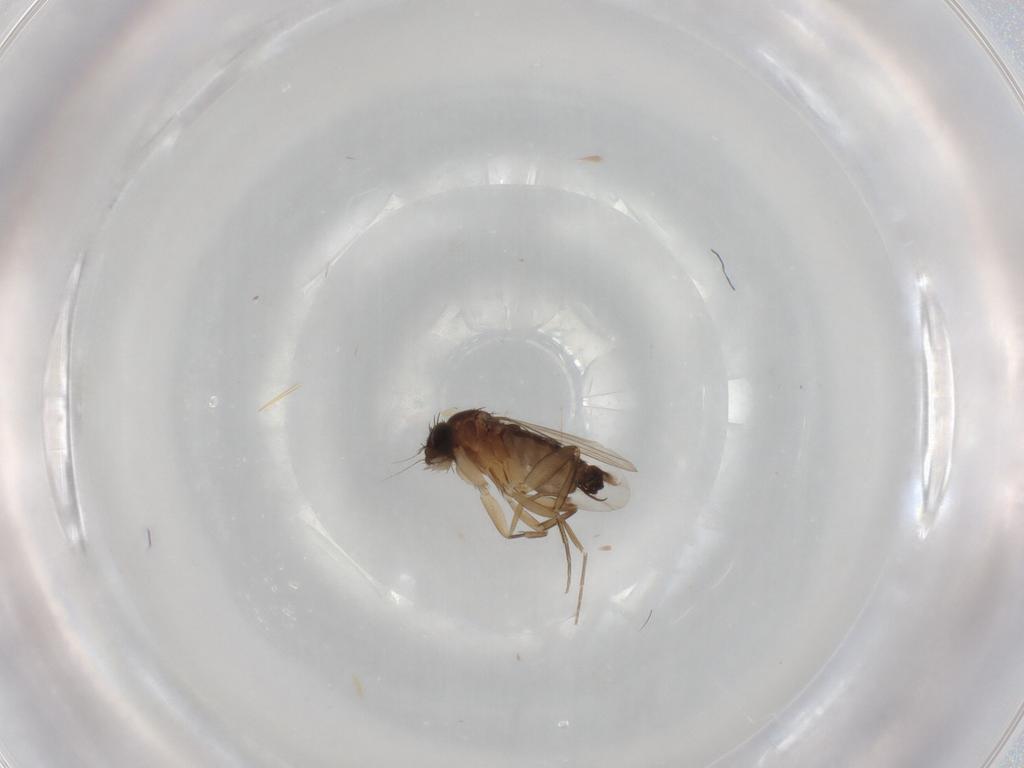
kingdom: Animalia
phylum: Arthropoda
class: Insecta
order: Diptera
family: Phoridae
